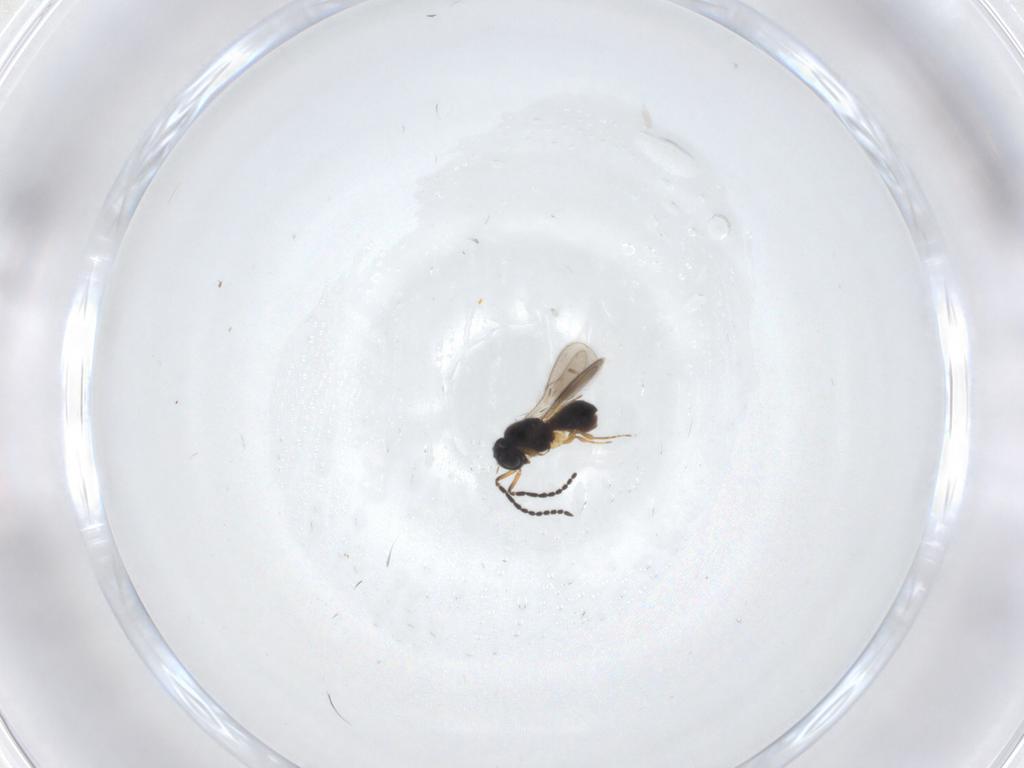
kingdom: Animalia
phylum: Arthropoda
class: Insecta
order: Hymenoptera
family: Scelionidae
